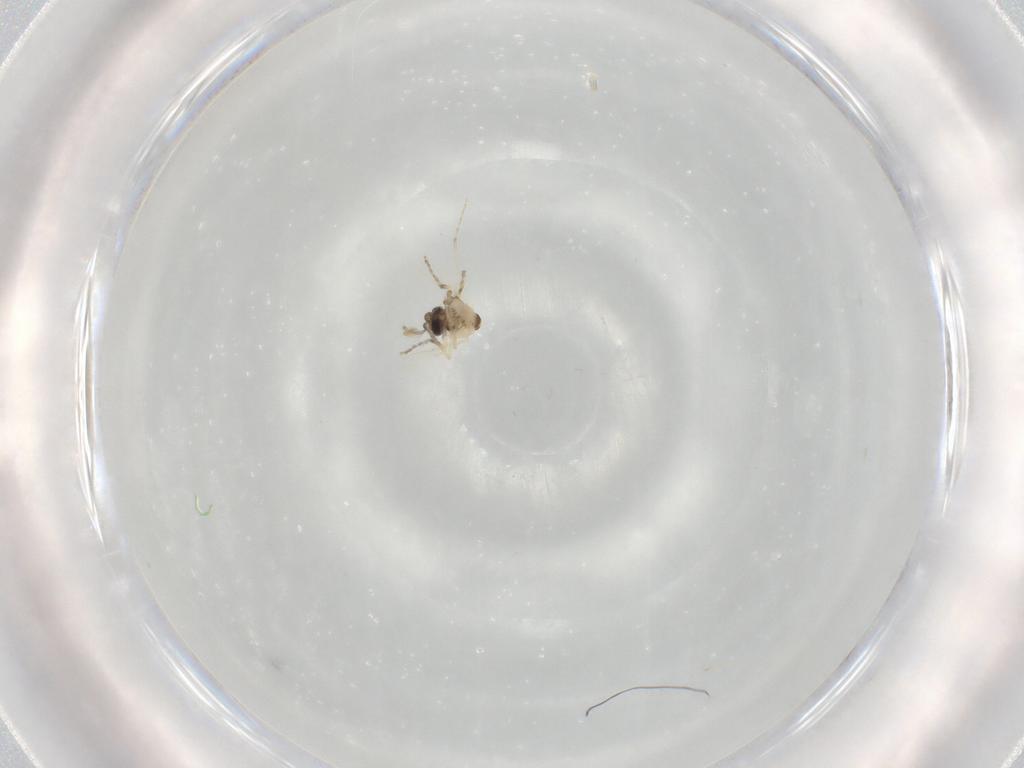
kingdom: Animalia
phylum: Arthropoda
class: Insecta
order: Diptera
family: Ceratopogonidae
